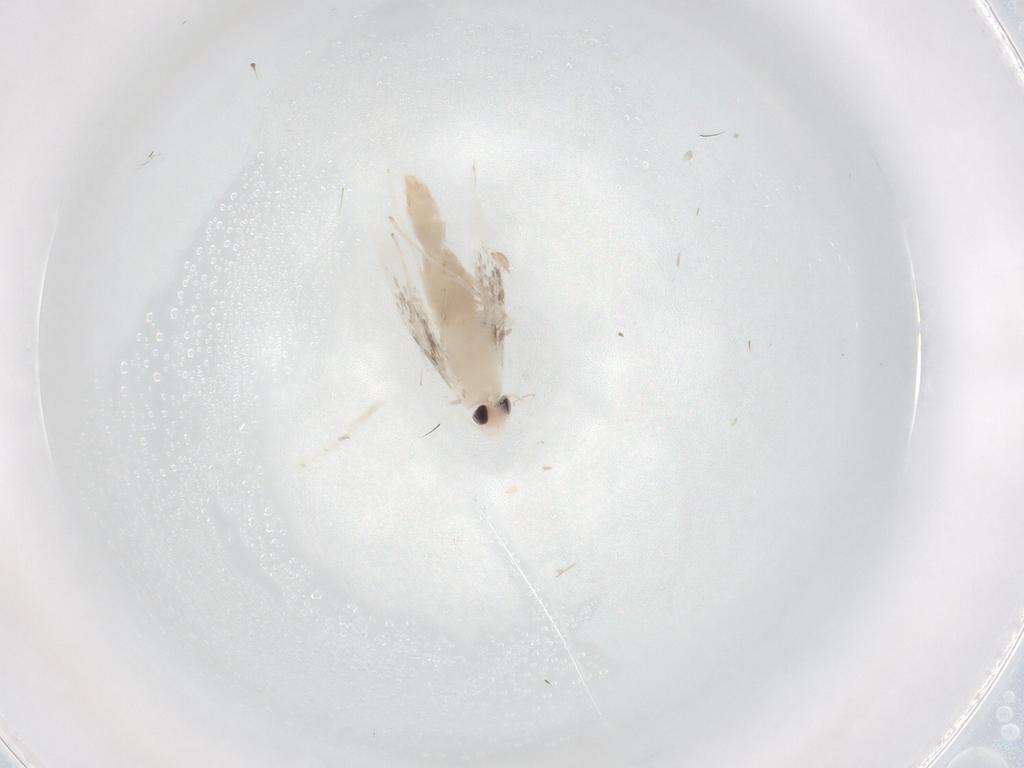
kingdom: Animalia
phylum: Arthropoda
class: Insecta
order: Lepidoptera
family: Gracillariidae
